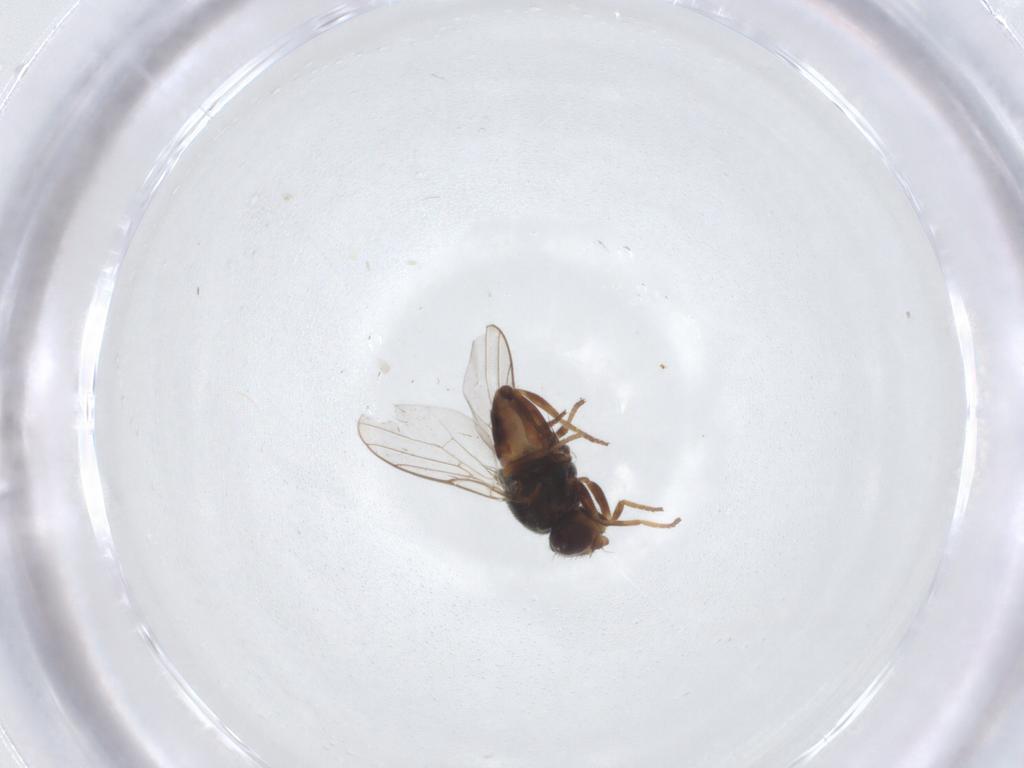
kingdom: Animalia
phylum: Arthropoda
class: Insecta
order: Diptera
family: Chloropidae
